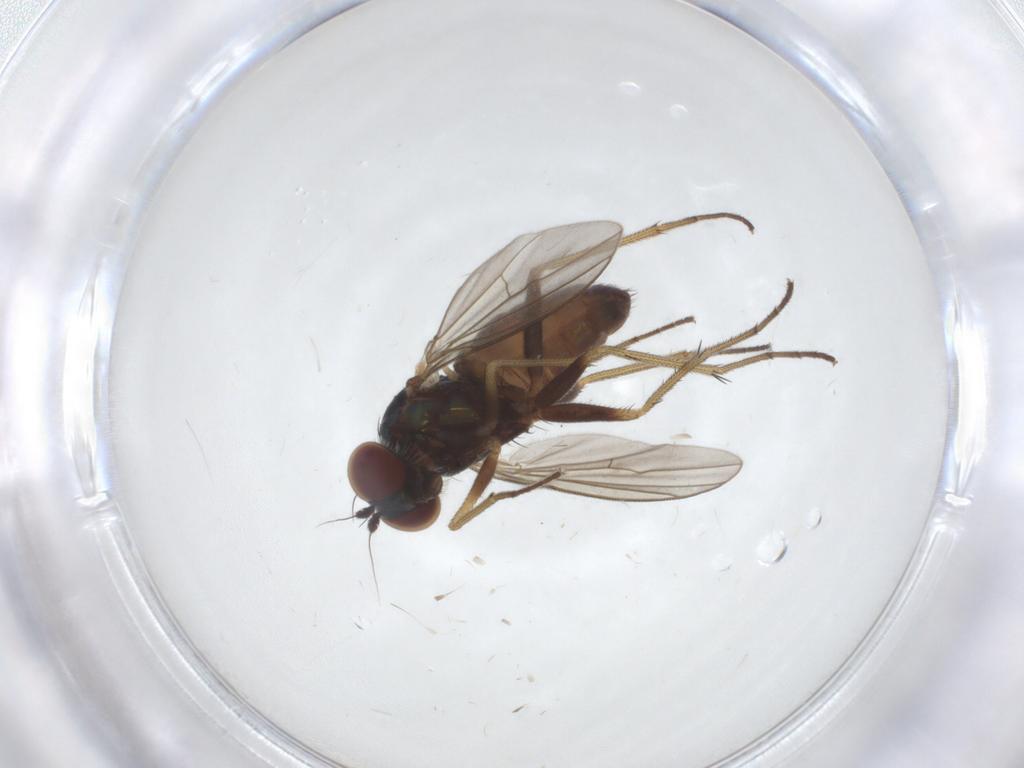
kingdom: Animalia
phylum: Arthropoda
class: Insecta
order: Diptera
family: Dolichopodidae
